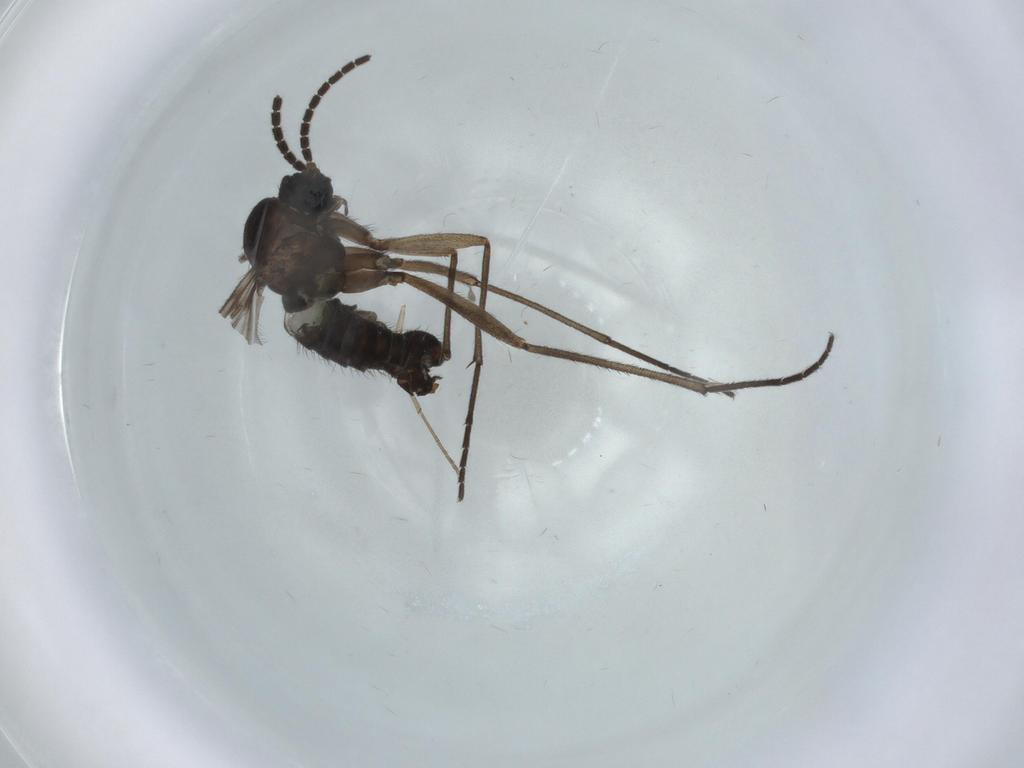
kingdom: Animalia
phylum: Arthropoda
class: Insecta
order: Diptera
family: Sciaridae
